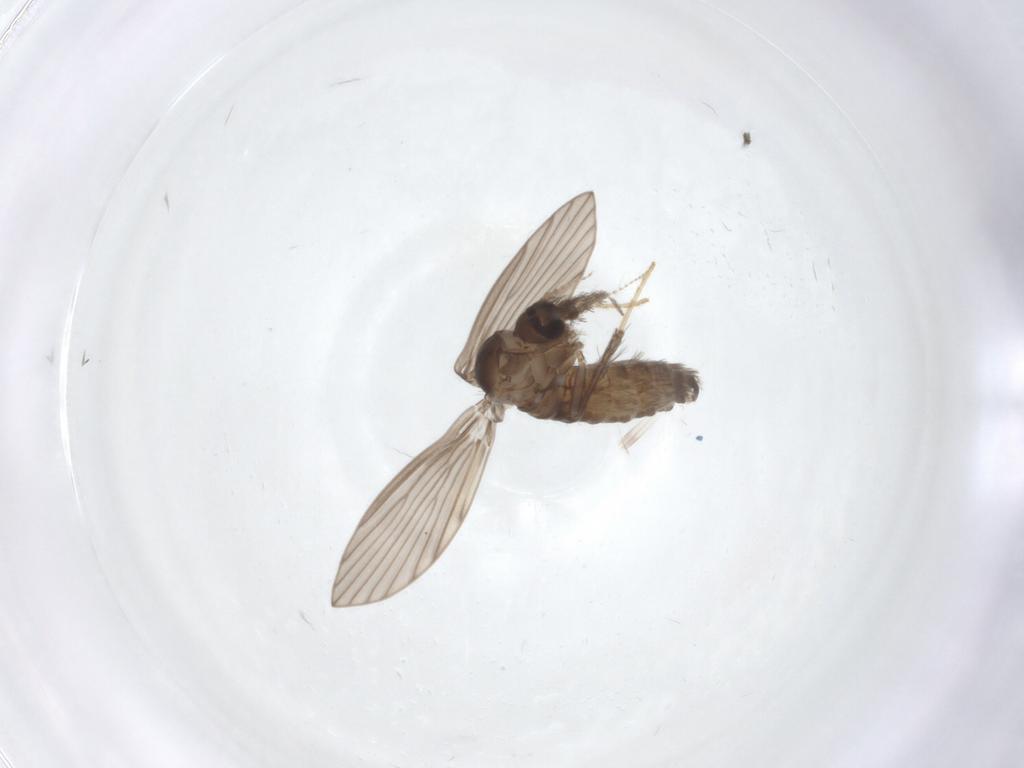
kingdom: Animalia
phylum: Arthropoda
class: Insecta
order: Diptera
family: Psychodidae
